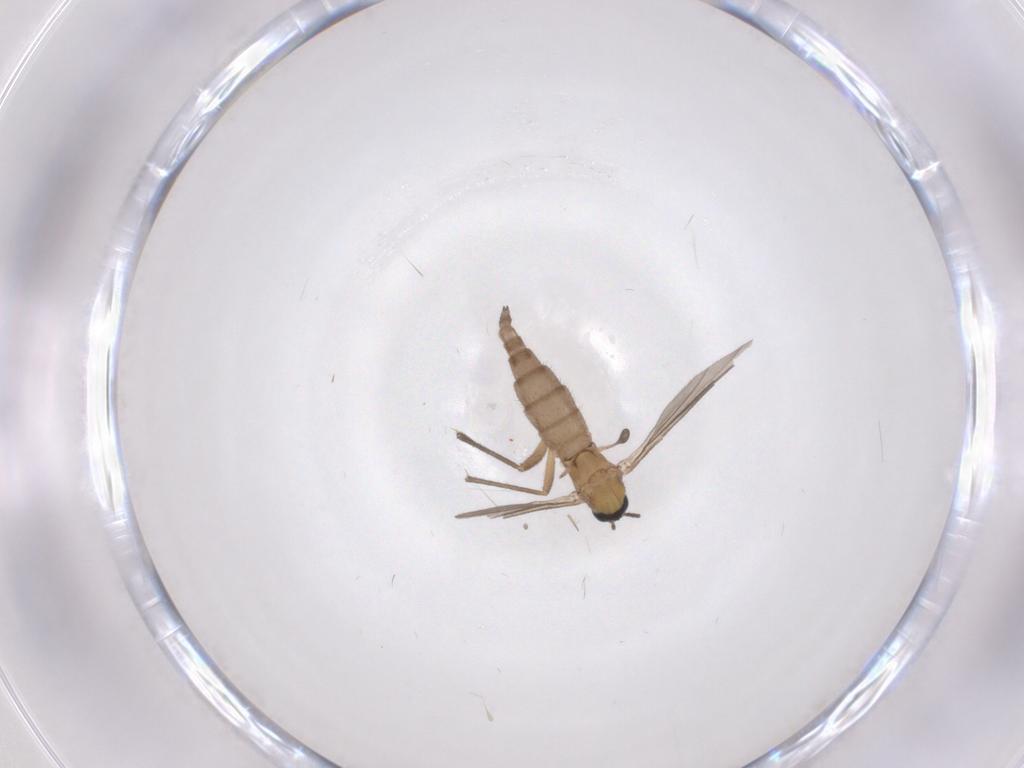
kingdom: Animalia
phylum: Arthropoda
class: Insecta
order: Diptera
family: Sciaridae
